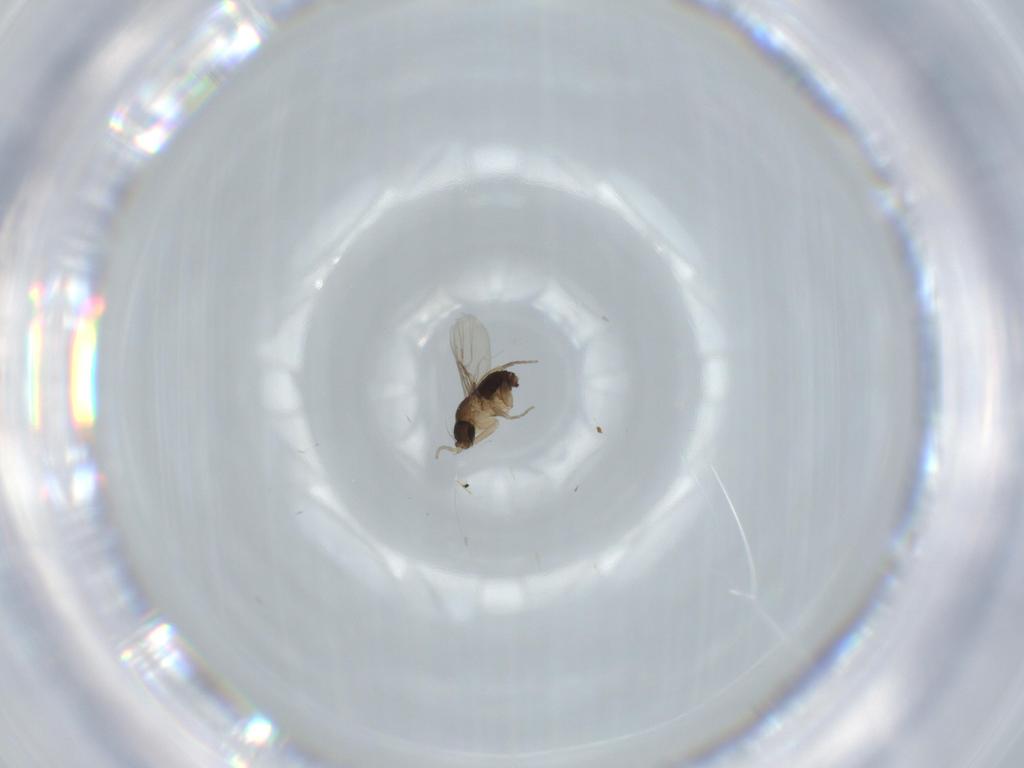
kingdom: Animalia
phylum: Arthropoda
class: Insecta
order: Diptera
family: Phoridae
